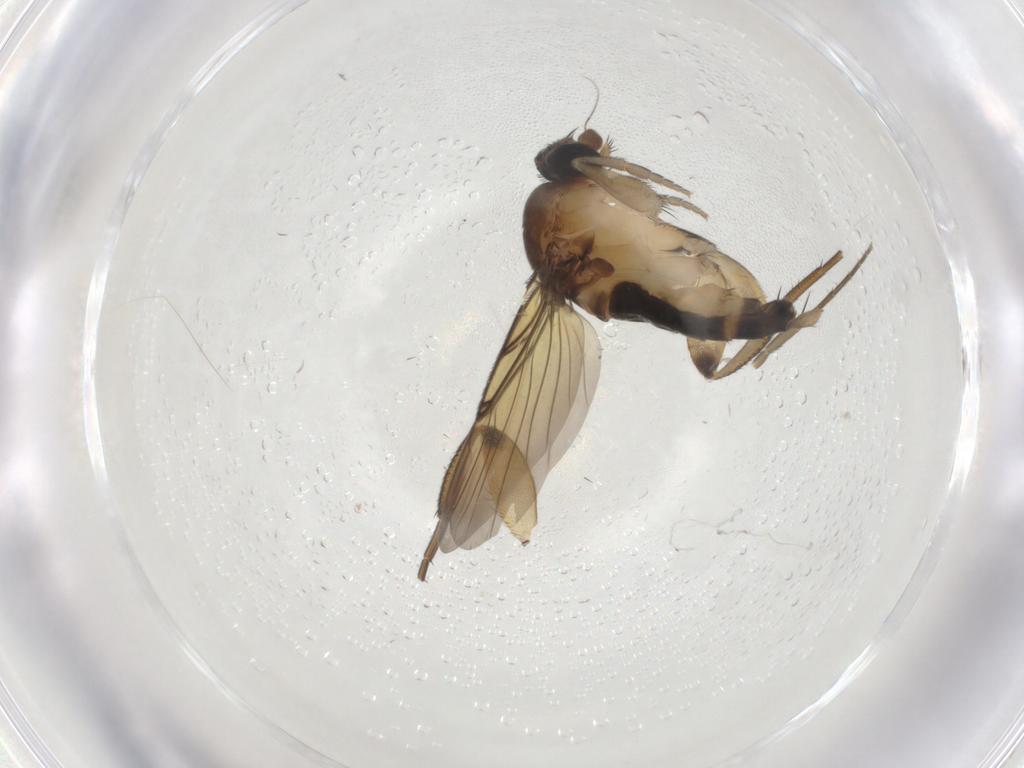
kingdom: Animalia
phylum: Arthropoda
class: Insecta
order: Diptera
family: Phoridae
